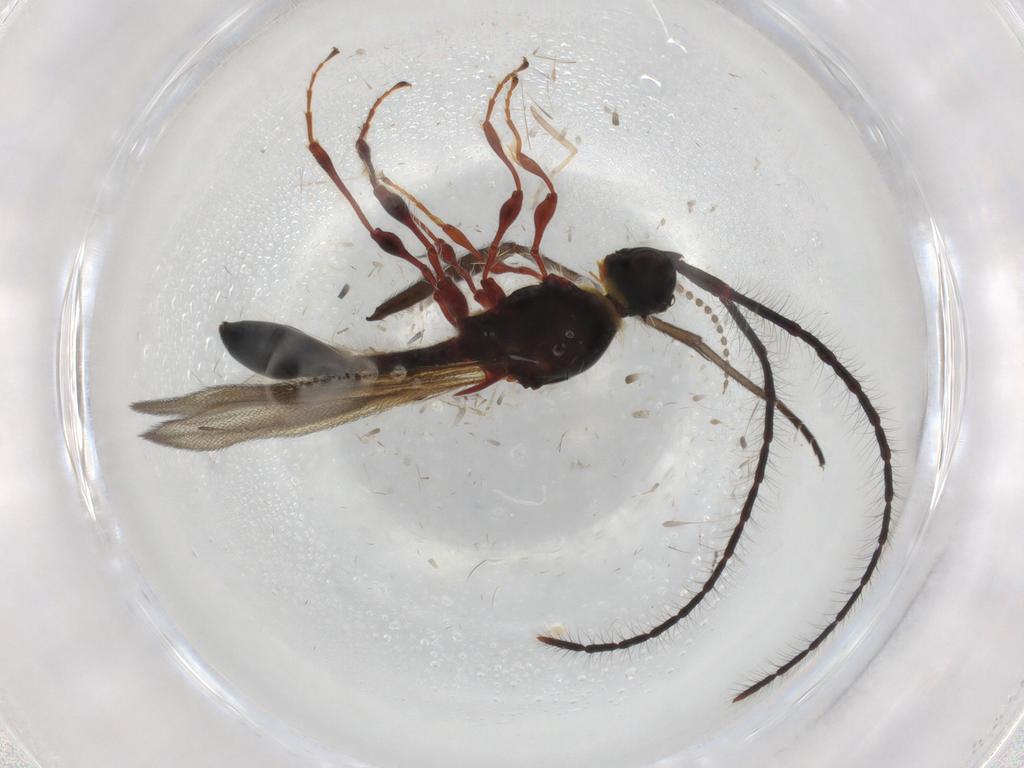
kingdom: Animalia
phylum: Arthropoda
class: Insecta
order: Hymenoptera
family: Diapriidae
